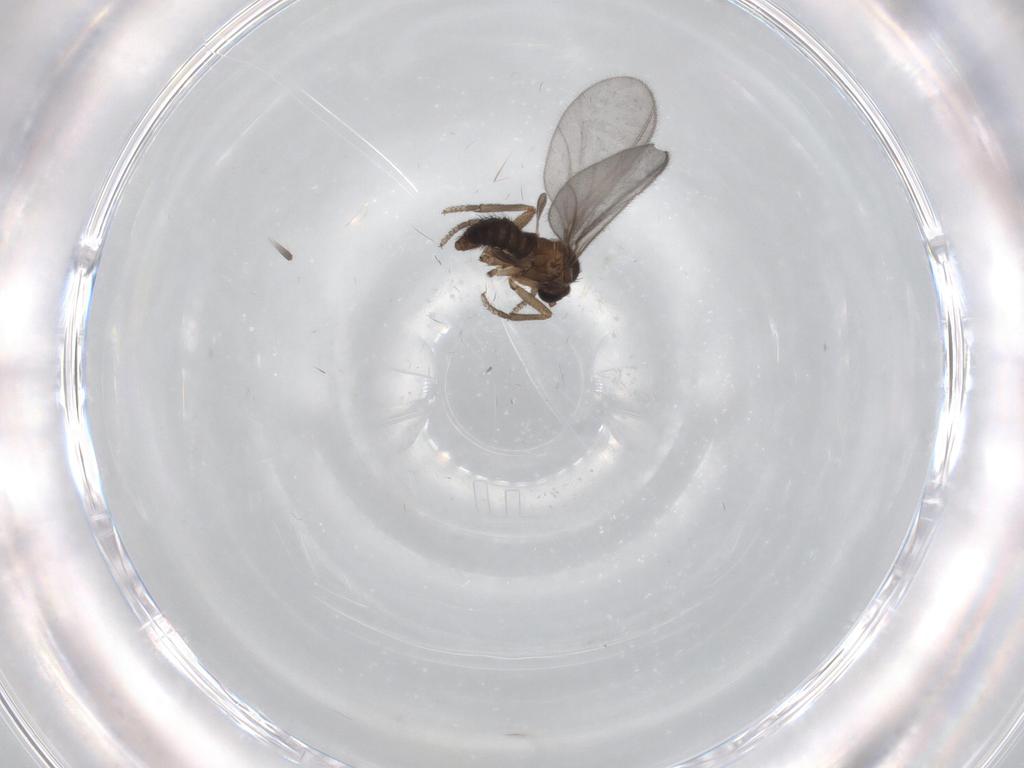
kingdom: Animalia
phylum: Arthropoda
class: Insecta
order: Diptera
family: Sciaridae
